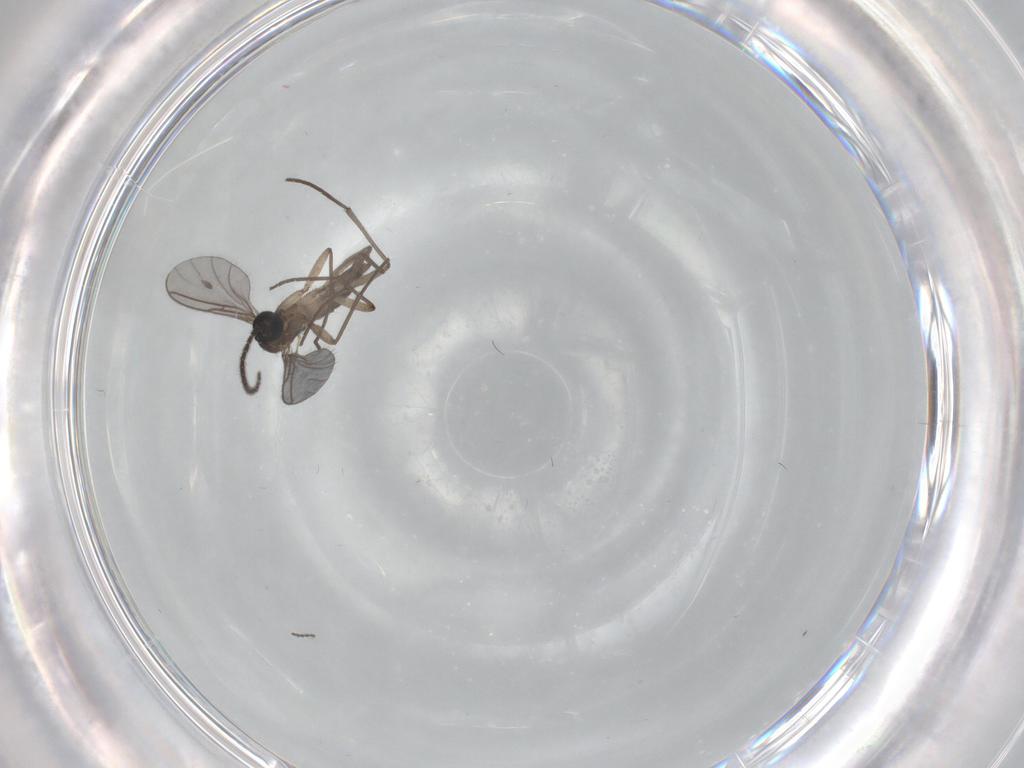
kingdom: Animalia
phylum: Arthropoda
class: Insecta
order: Diptera
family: Cecidomyiidae
